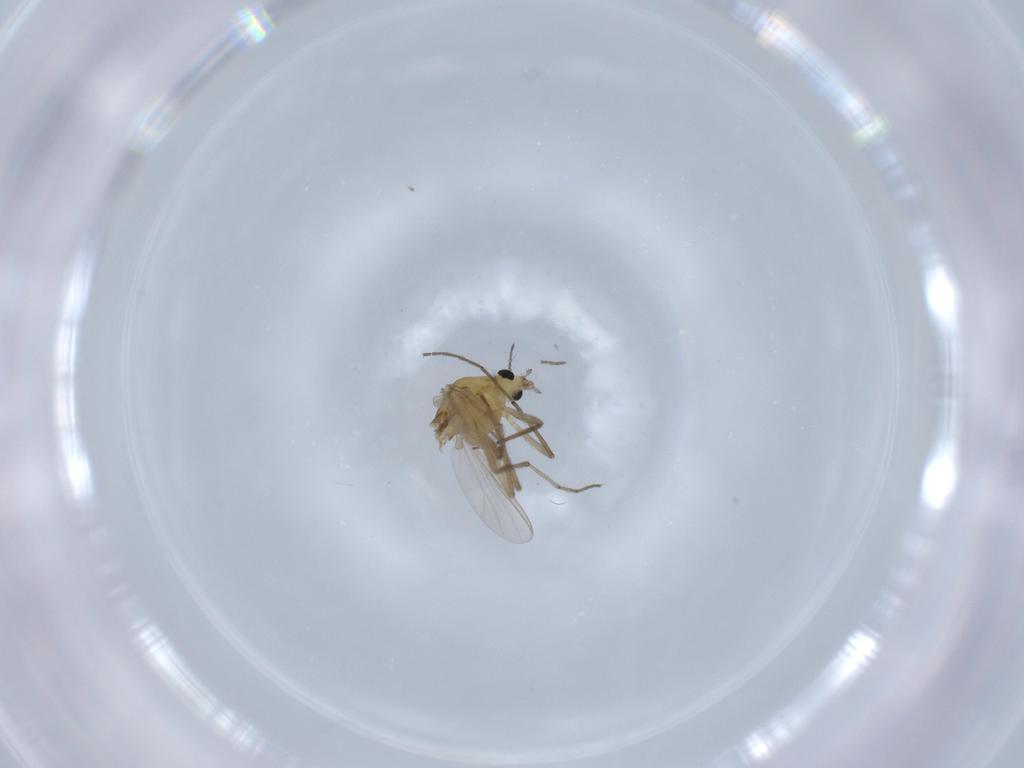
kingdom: Animalia
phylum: Arthropoda
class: Insecta
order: Diptera
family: Chironomidae
